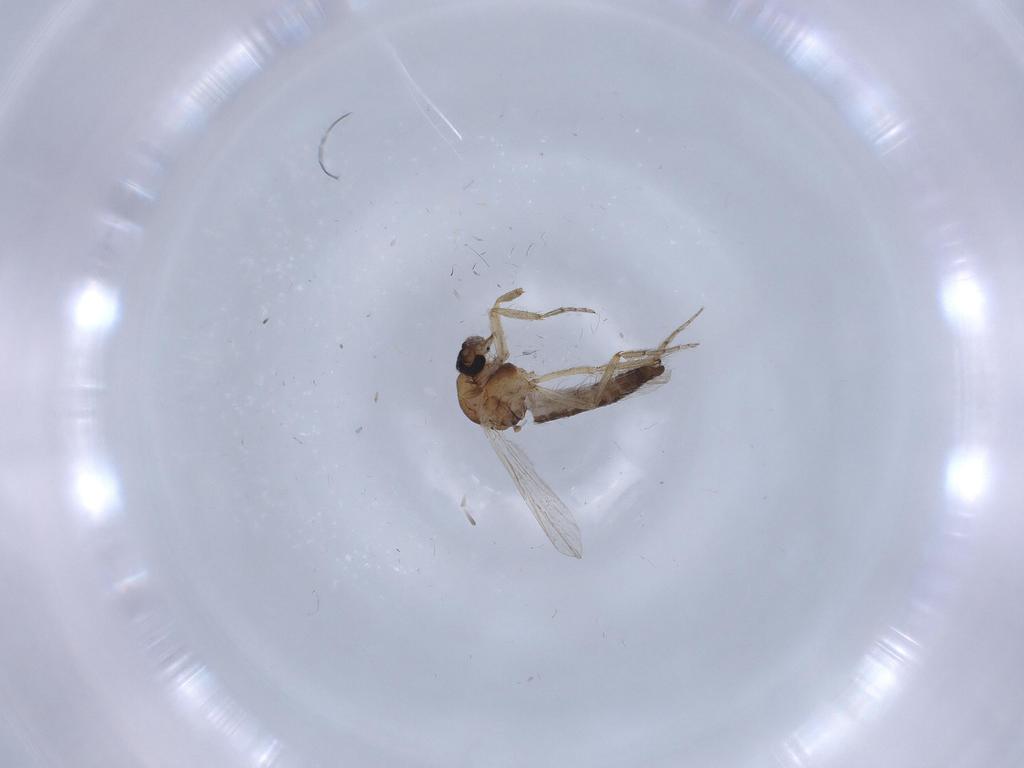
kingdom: Animalia
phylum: Arthropoda
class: Insecta
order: Diptera
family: Ceratopogonidae
